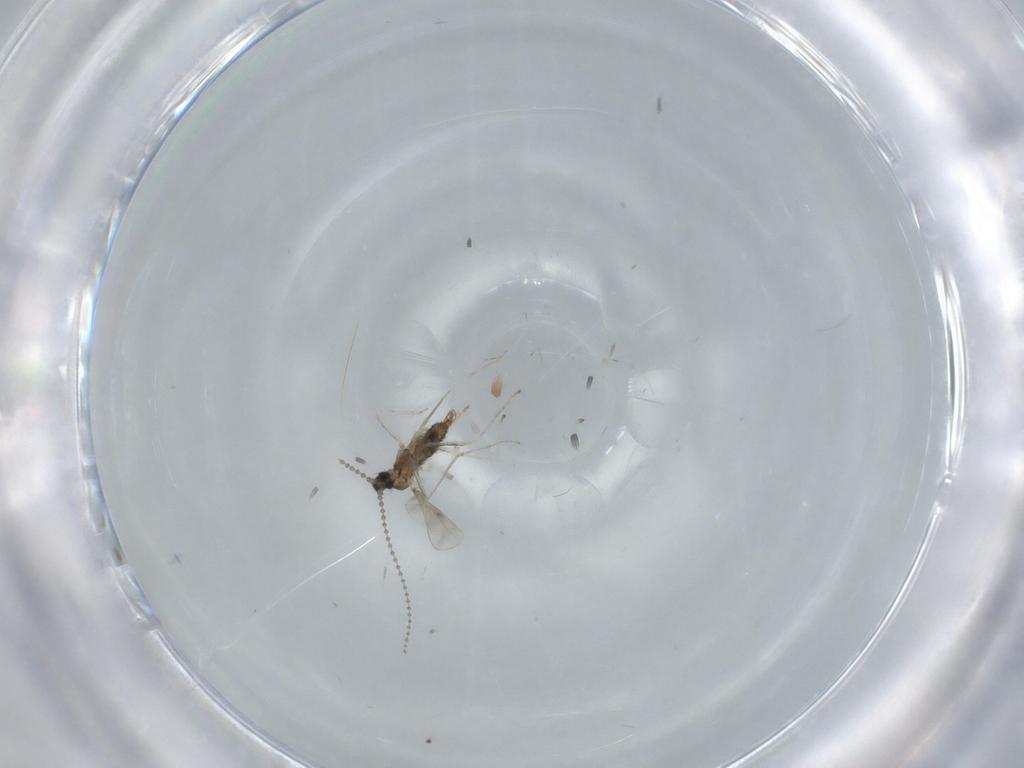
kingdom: Animalia
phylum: Arthropoda
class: Insecta
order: Diptera
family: Cecidomyiidae
